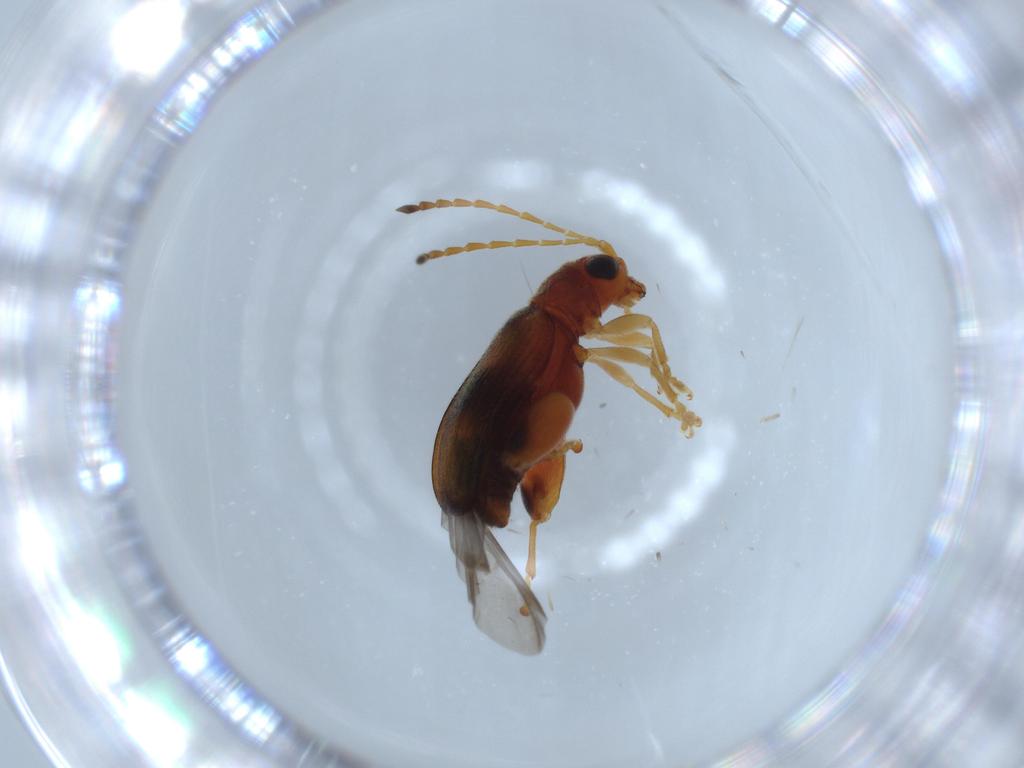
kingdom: Animalia
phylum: Arthropoda
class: Insecta
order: Coleoptera
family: Chrysomelidae
